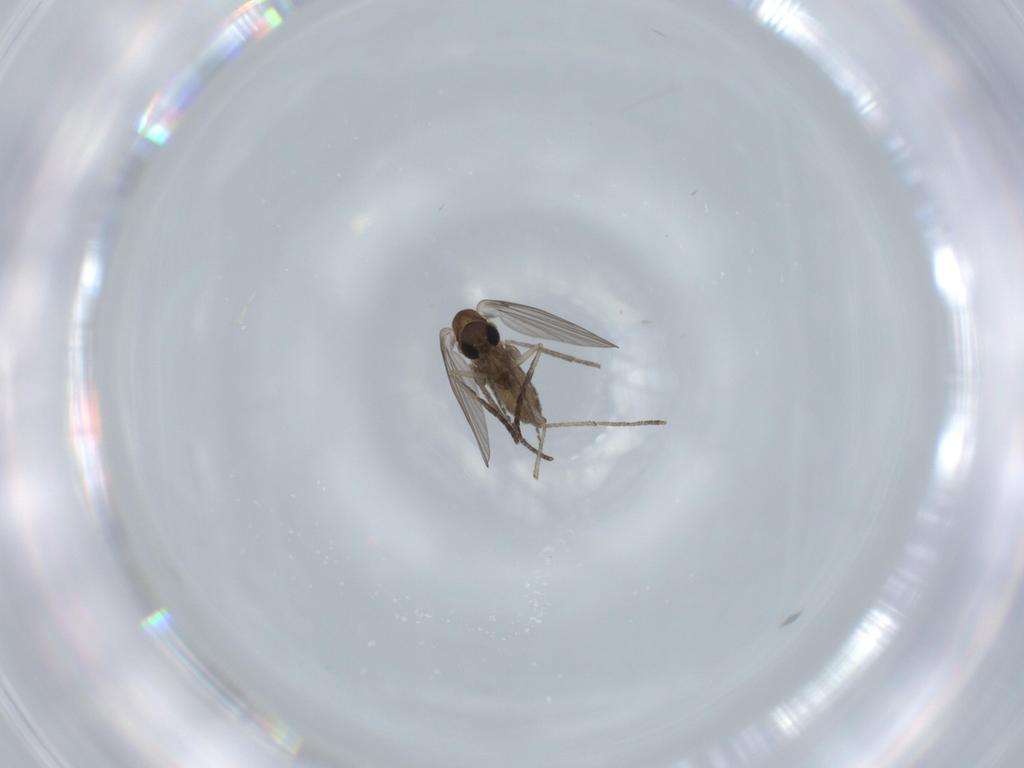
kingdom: Animalia
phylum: Arthropoda
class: Insecta
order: Diptera
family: Psychodidae
